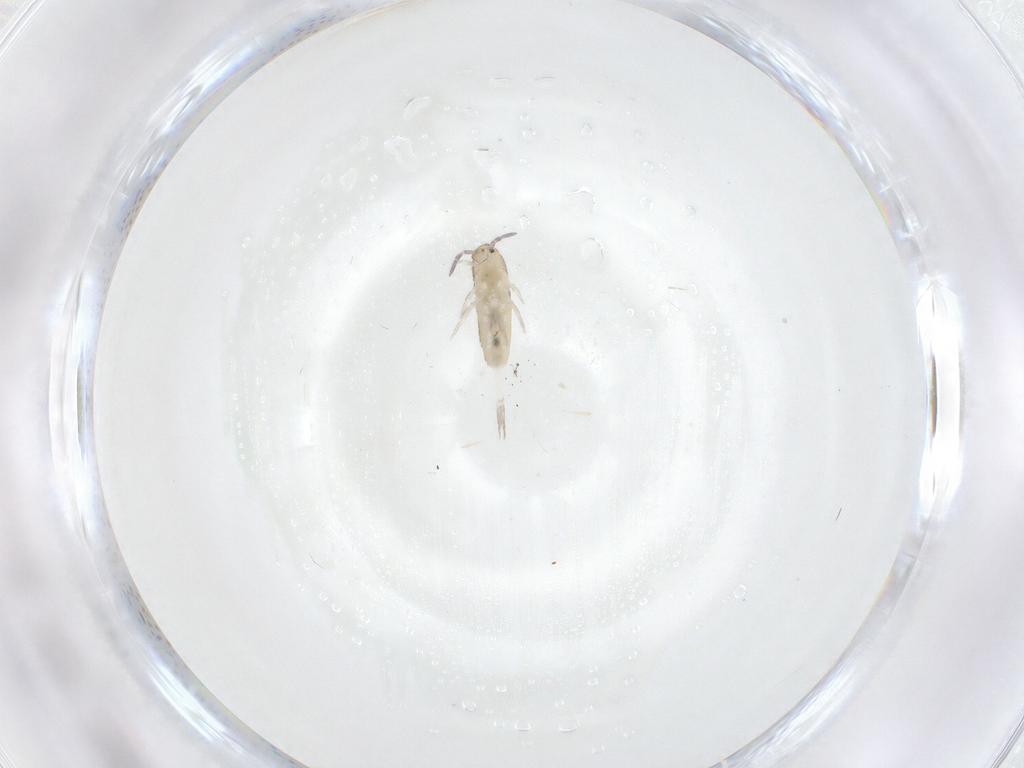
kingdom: Animalia
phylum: Arthropoda
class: Collembola
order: Entomobryomorpha
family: Entomobryidae
